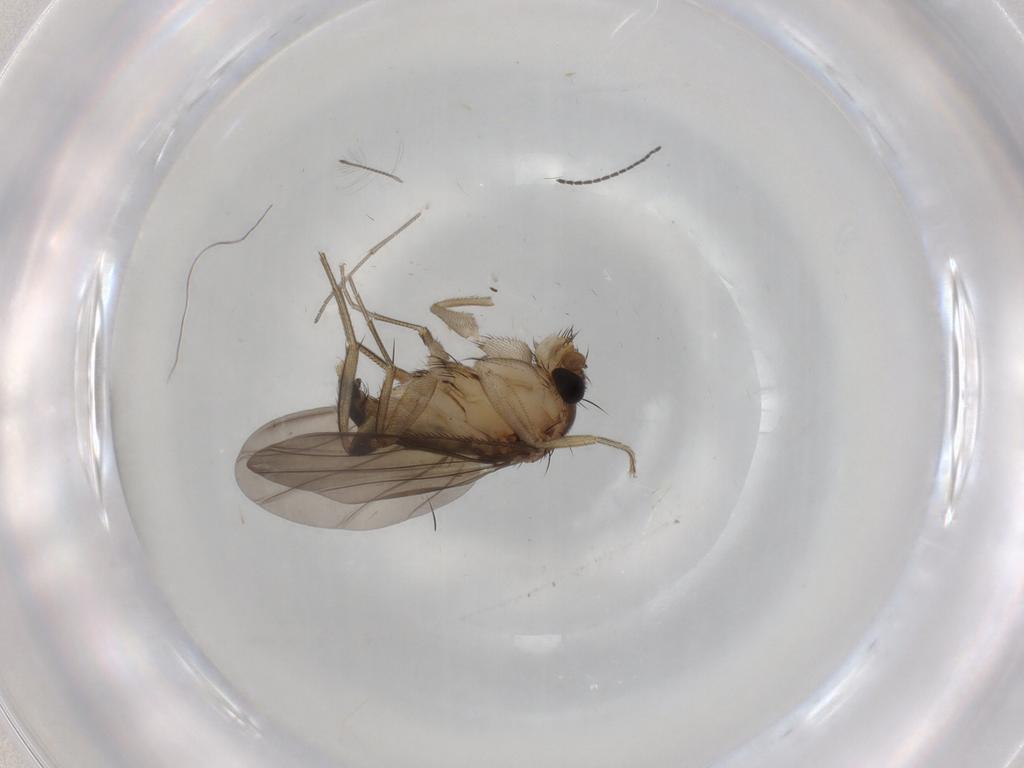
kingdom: Animalia
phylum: Arthropoda
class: Insecta
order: Diptera
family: Phoridae
